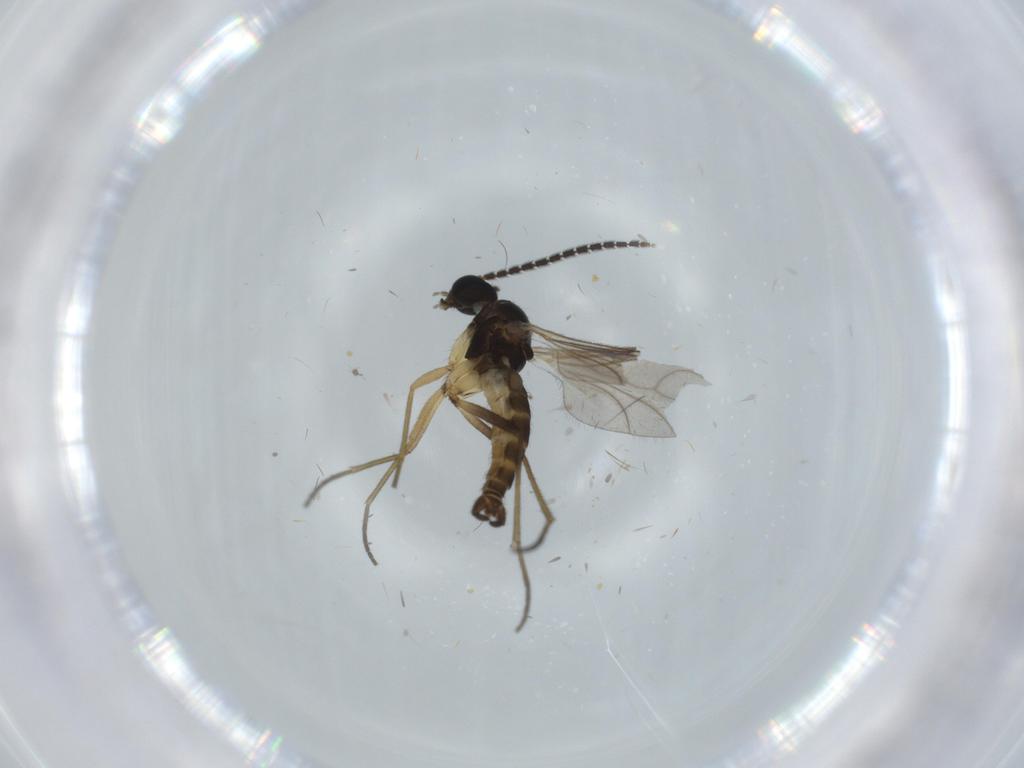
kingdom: Animalia
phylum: Arthropoda
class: Insecta
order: Diptera
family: Sciaridae
